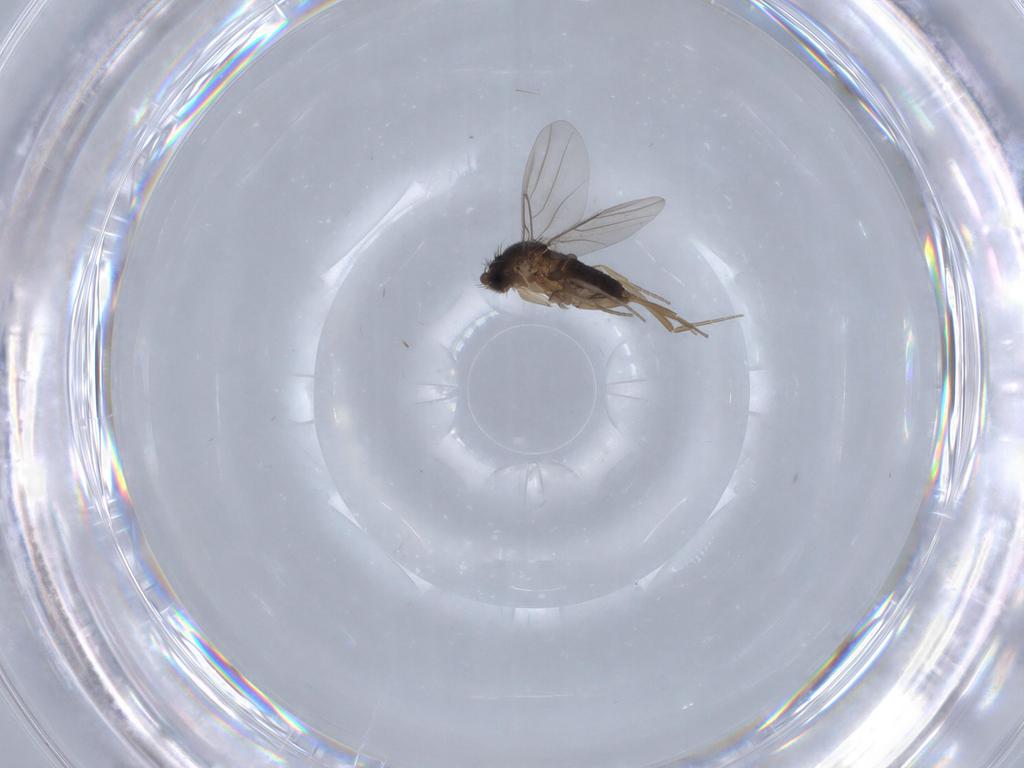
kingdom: Animalia
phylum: Arthropoda
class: Insecta
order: Diptera
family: Phoridae
